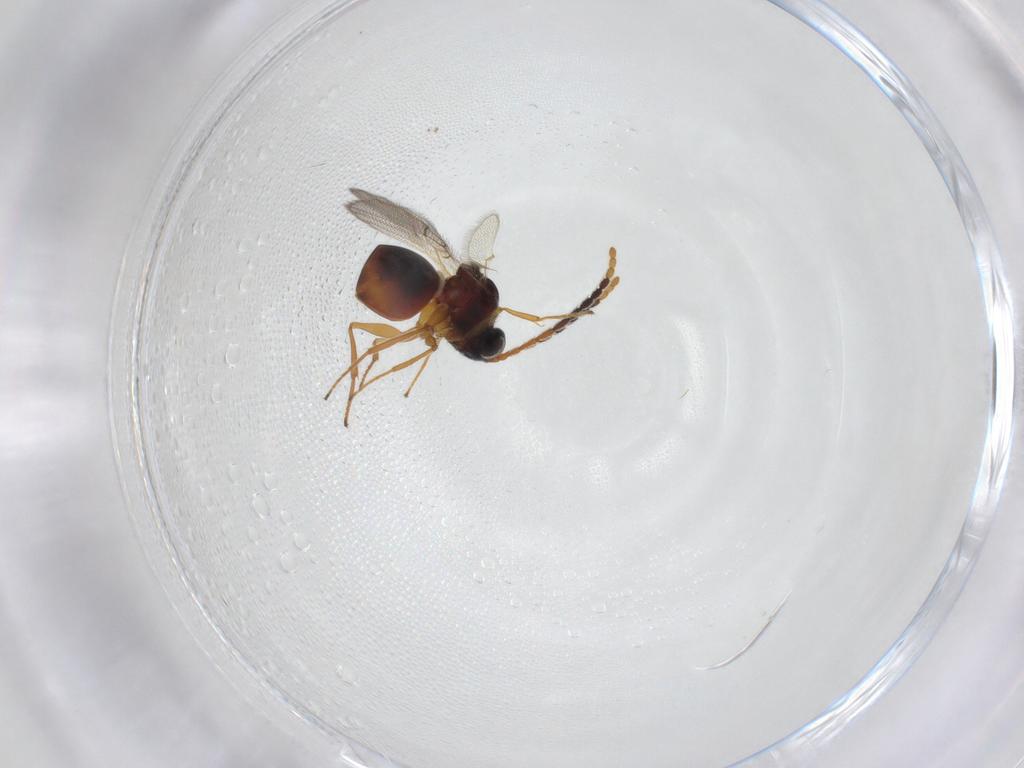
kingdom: Animalia
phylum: Arthropoda
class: Insecta
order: Hymenoptera
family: Figitidae
